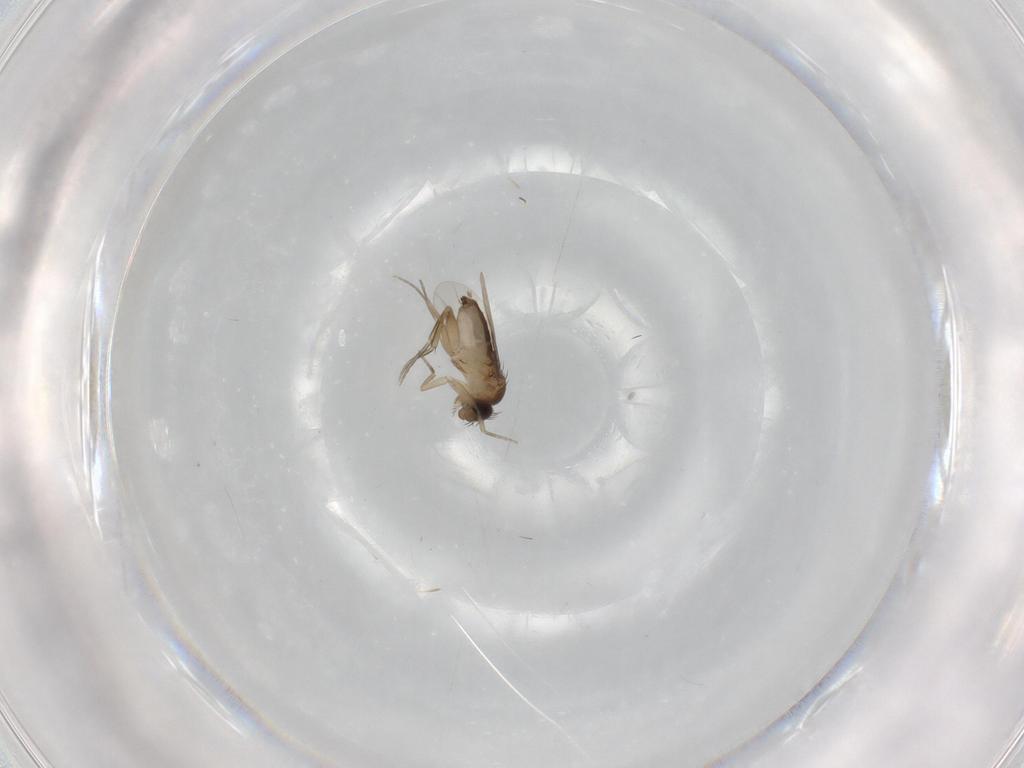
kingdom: Animalia
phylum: Arthropoda
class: Insecta
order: Diptera
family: Phoridae
